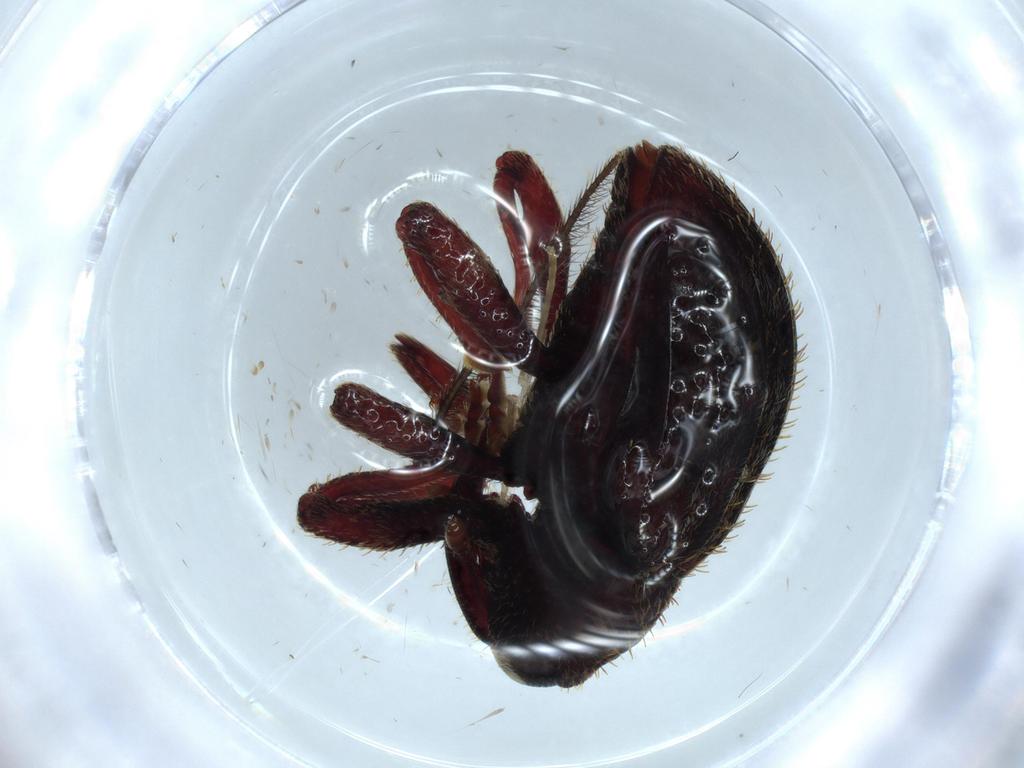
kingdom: Animalia
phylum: Arthropoda
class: Insecta
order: Coleoptera
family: Curculionidae
